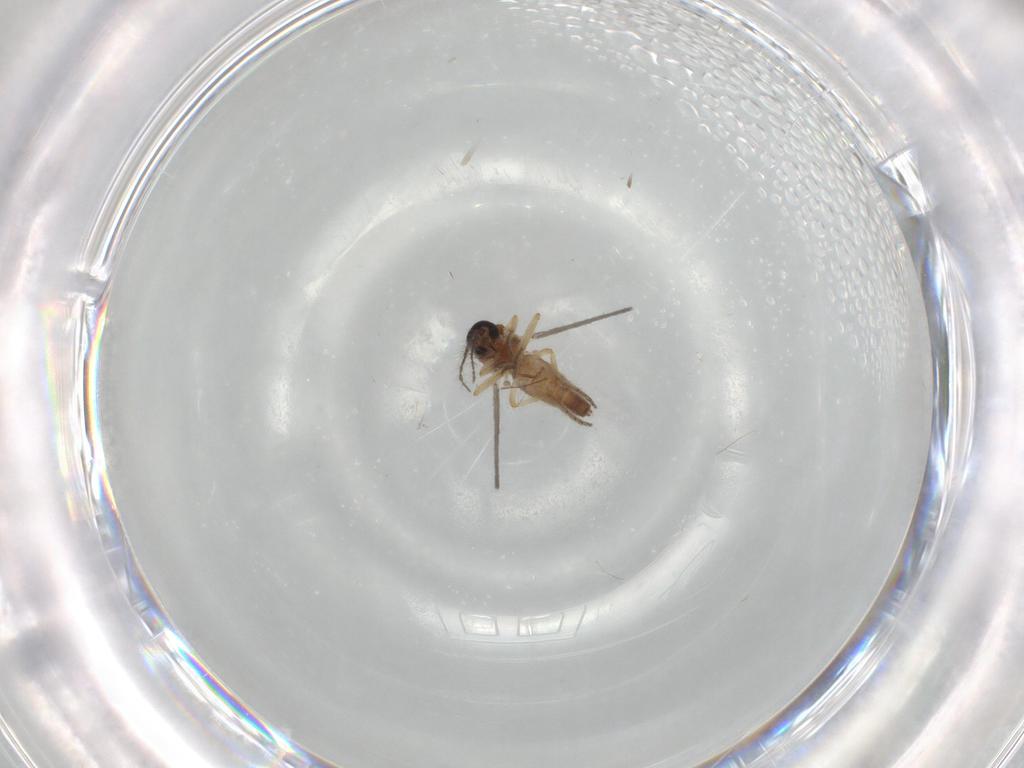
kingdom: Animalia
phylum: Arthropoda
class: Insecta
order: Diptera
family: Ceratopogonidae
